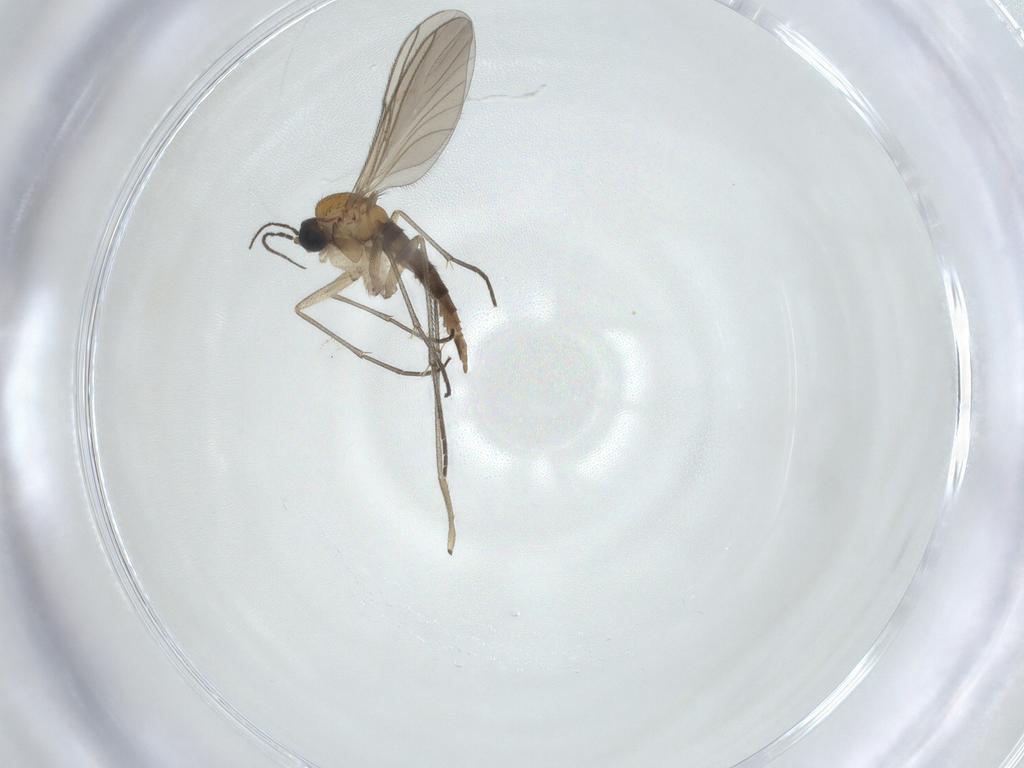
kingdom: Animalia
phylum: Arthropoda
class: Insecta
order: Diptera
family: Sciaridae
